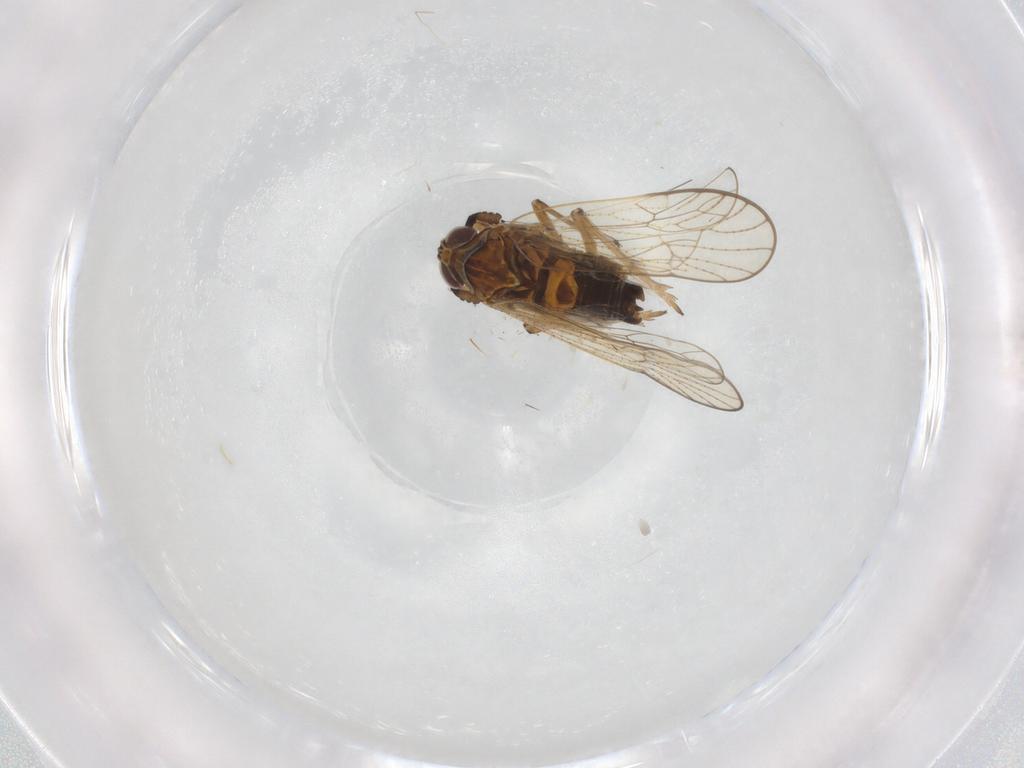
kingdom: Animalia
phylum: Arthropoda
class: Insecta
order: Hemiptera
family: Delphacidae
